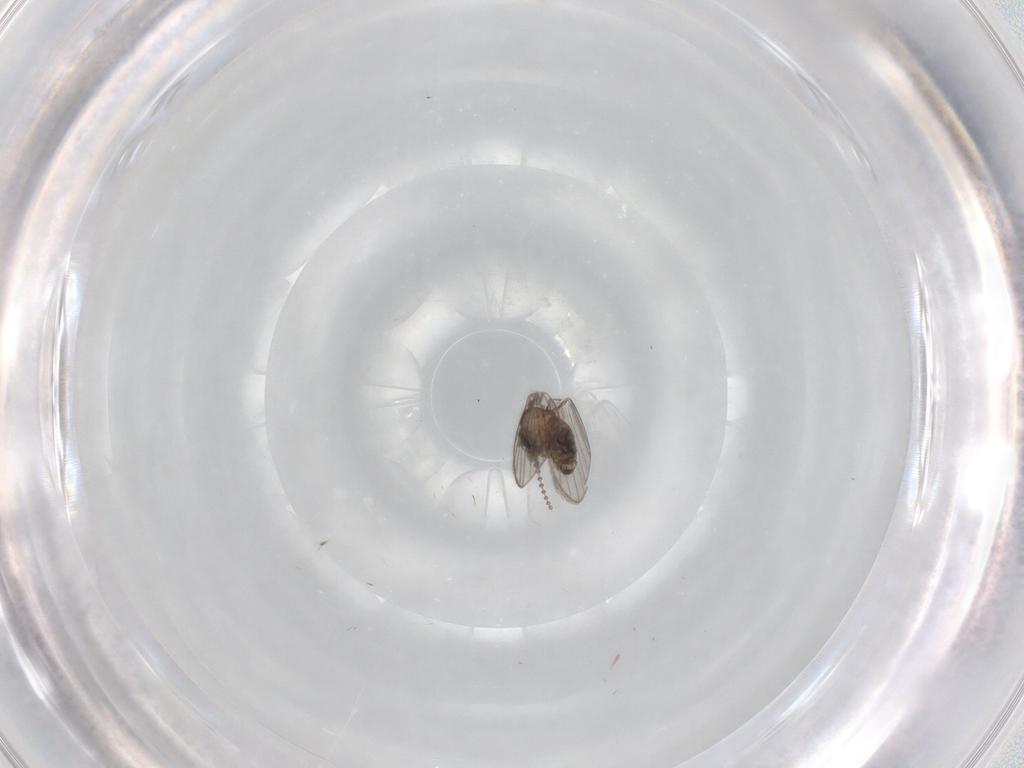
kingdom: Animalia
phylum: Arthropoda
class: Insecta
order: Diptera
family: Psychodidae
